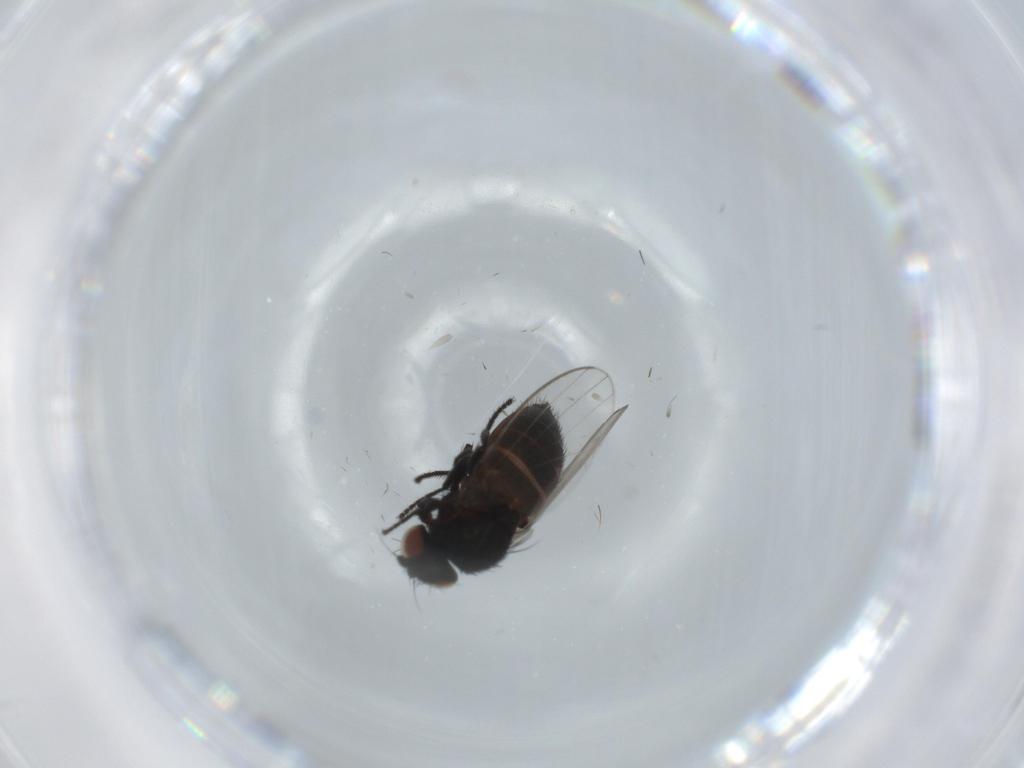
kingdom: Animalia
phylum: Arthropoda
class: Insecta
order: Diptera
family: Milichiidae
